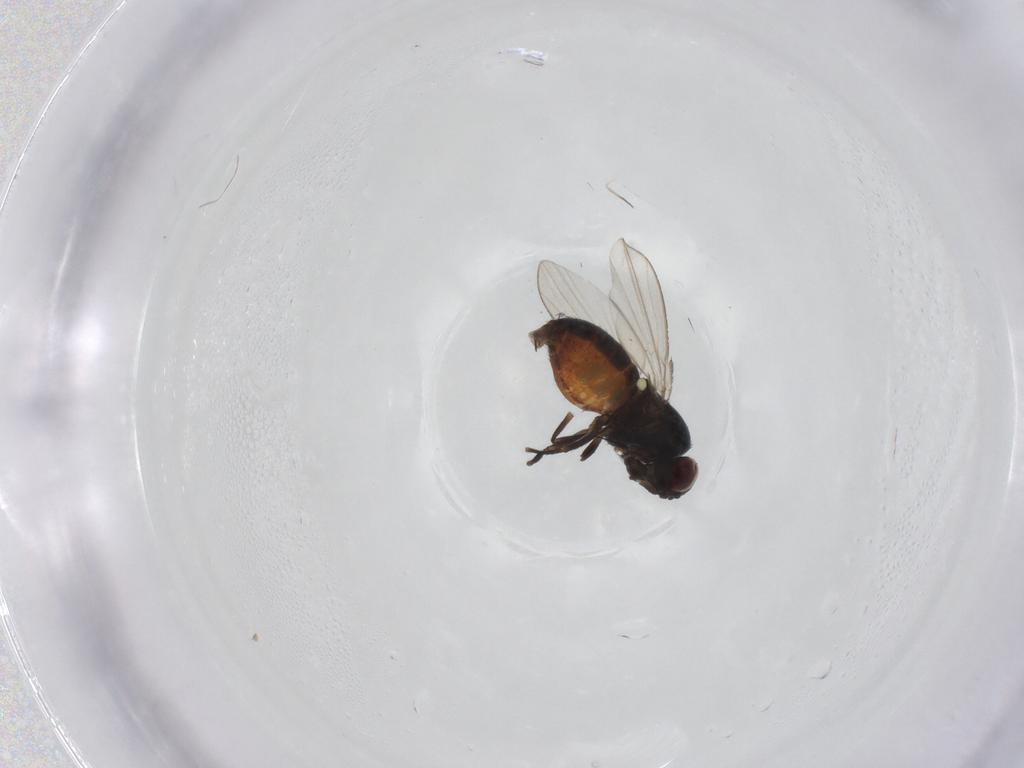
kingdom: Animalia
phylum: Arthropoda
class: Insecta
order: Diptera
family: Carnidae
